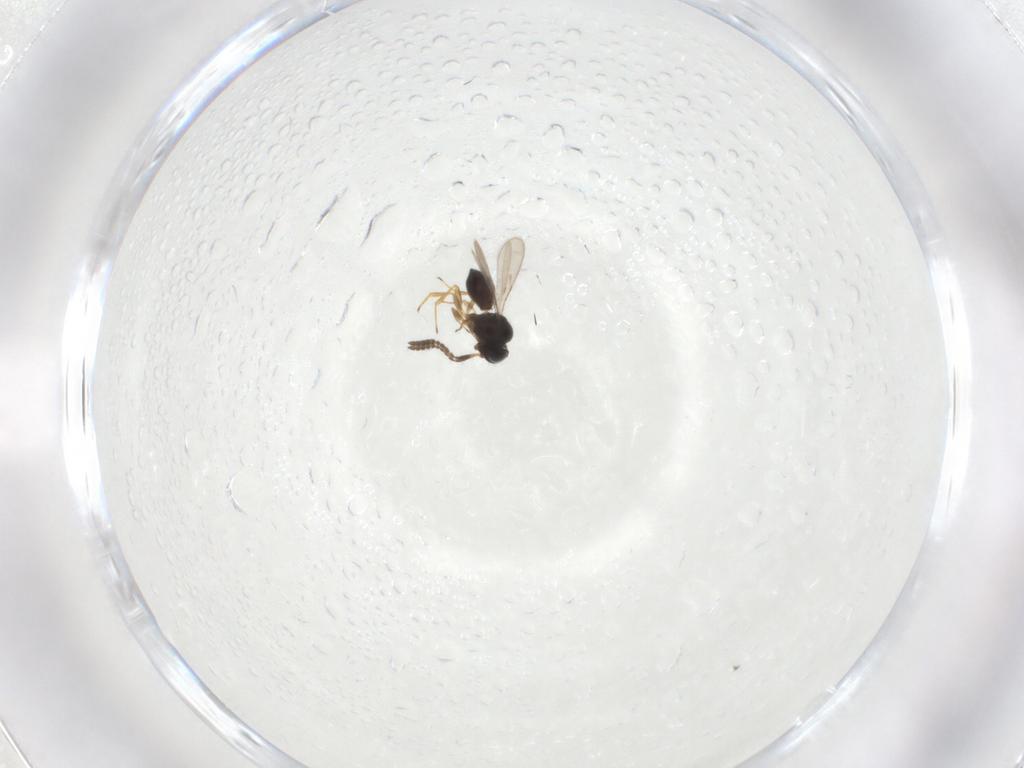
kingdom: Animalia
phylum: Arthropoda
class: Insecta
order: Hymenoptera
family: Scelionidae
